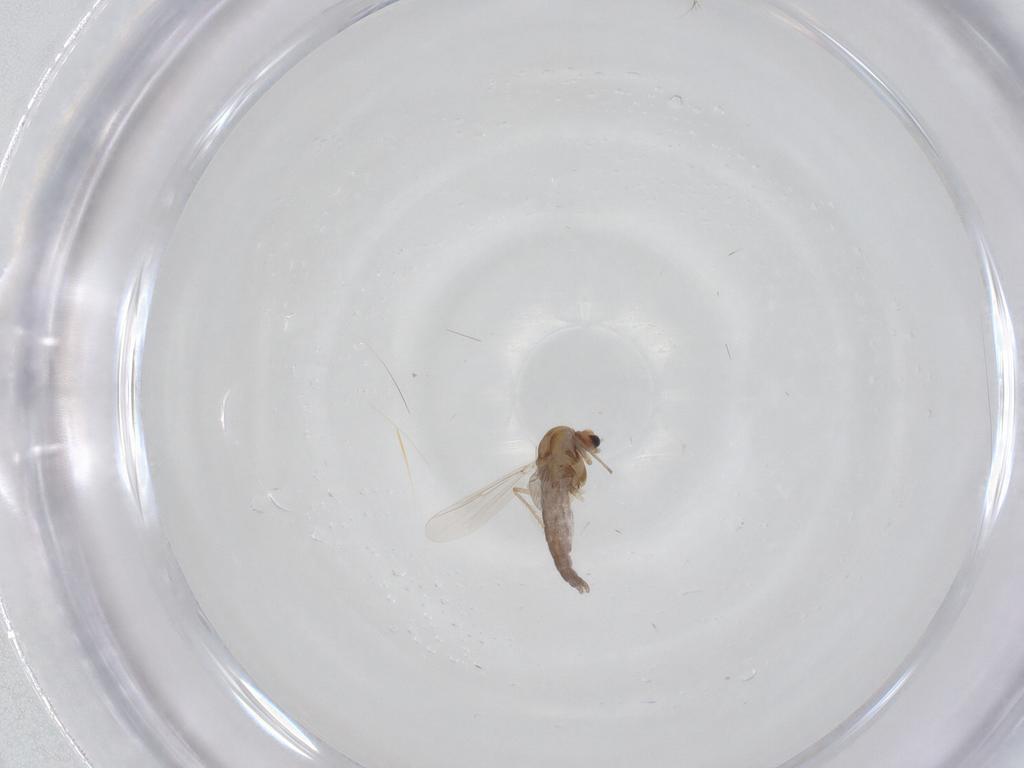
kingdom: Animalia
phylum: Arthropoda
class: Insecta
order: Diptera
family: Chironomidae
